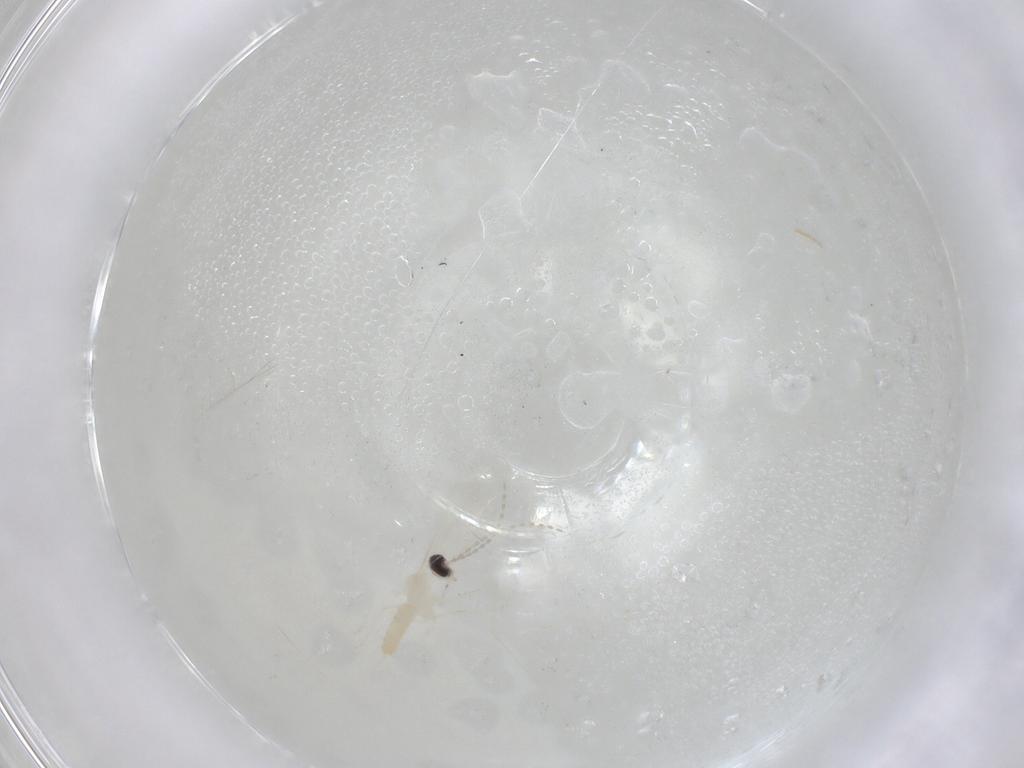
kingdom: Animalia
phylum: Arthropoda
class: Insecta
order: Diptera
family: Cecidomyiidae
